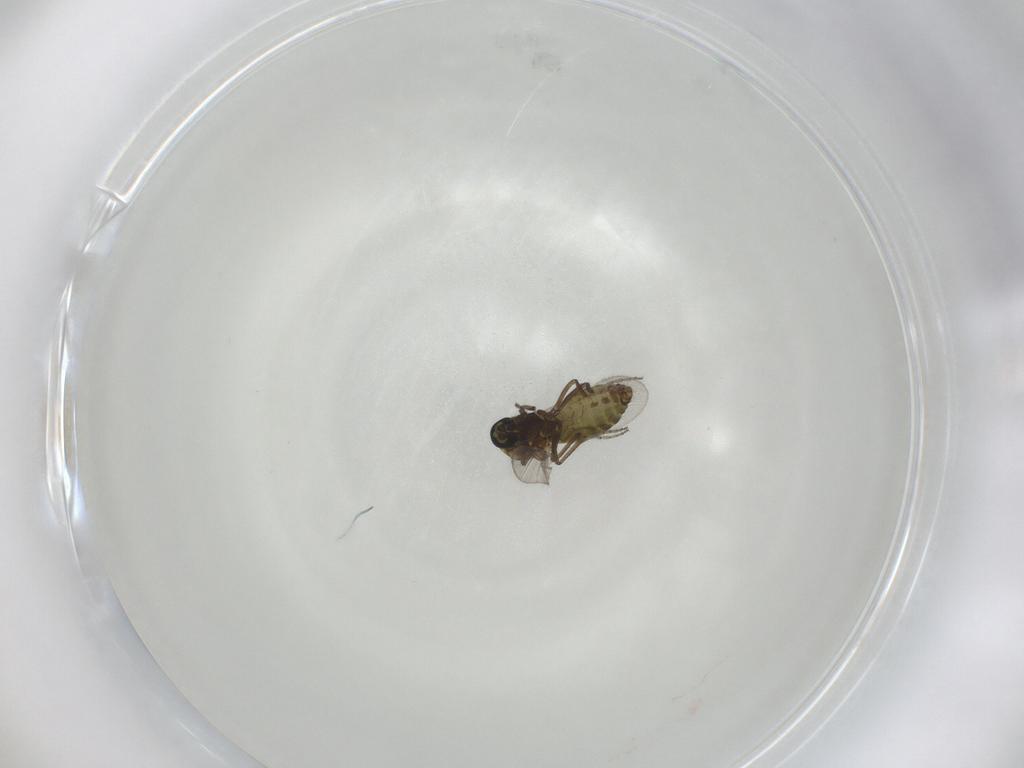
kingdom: Animalia
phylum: Arthropoda
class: Insecta
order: Diptera
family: Ceratopogonidae
